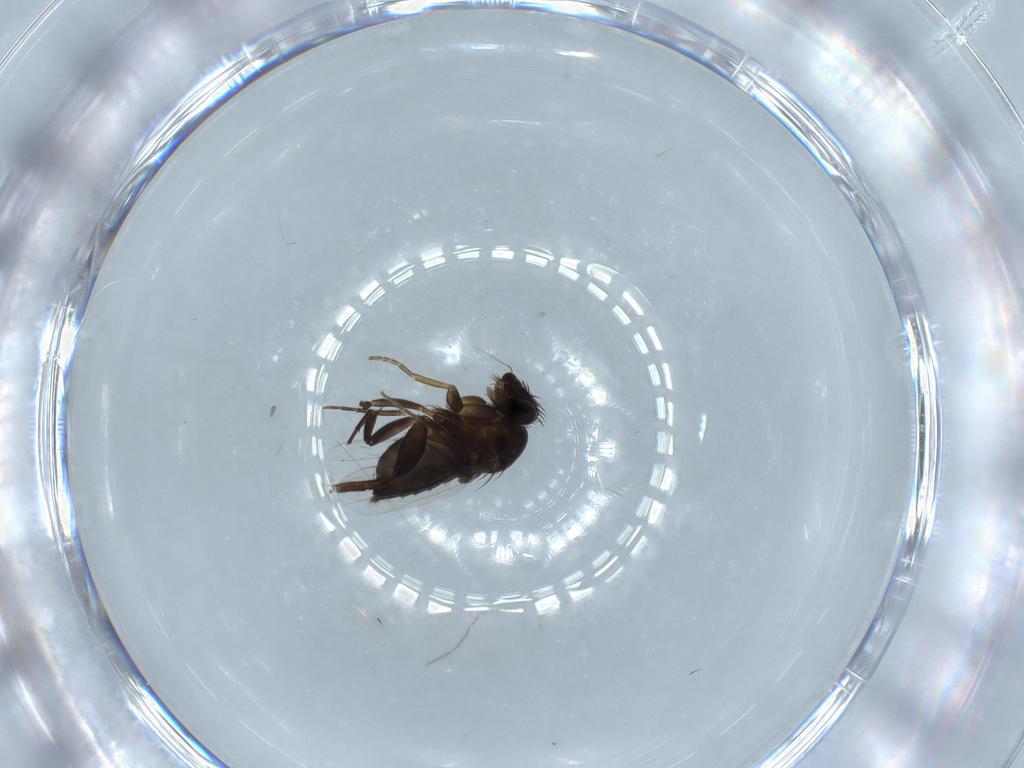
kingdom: Animalia
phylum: Arthropoda
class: Insecta
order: Diptera
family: Phoridae
